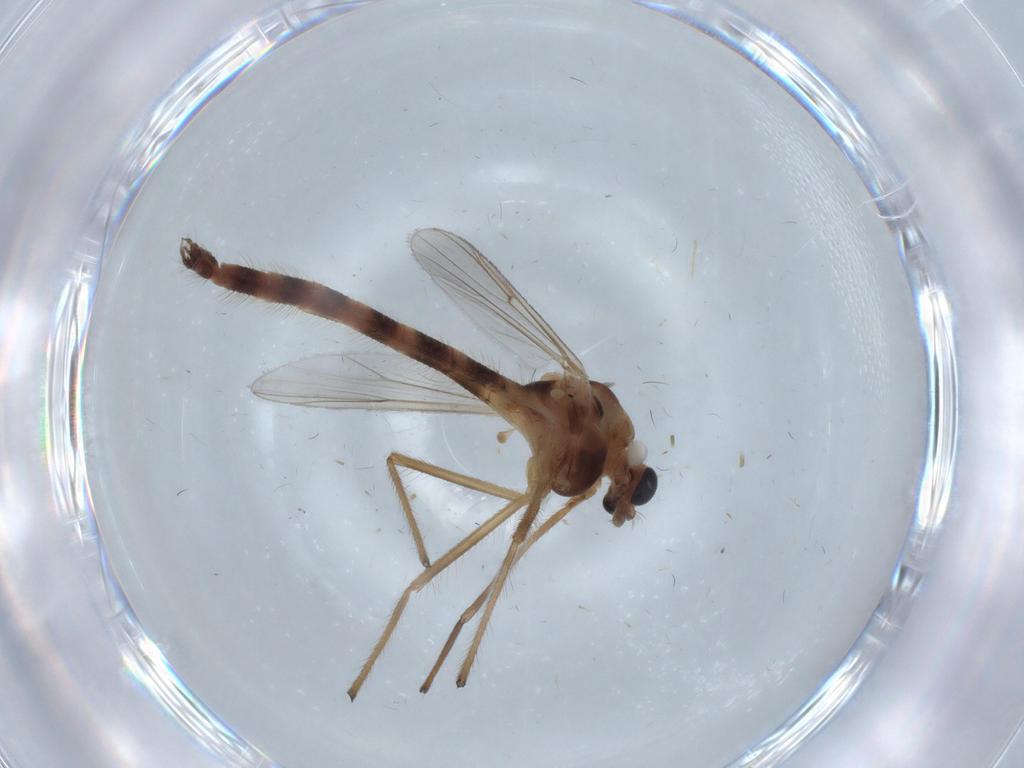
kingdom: Animalia
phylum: Arthropoda
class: Insecta
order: Diptera
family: Chironomidae
